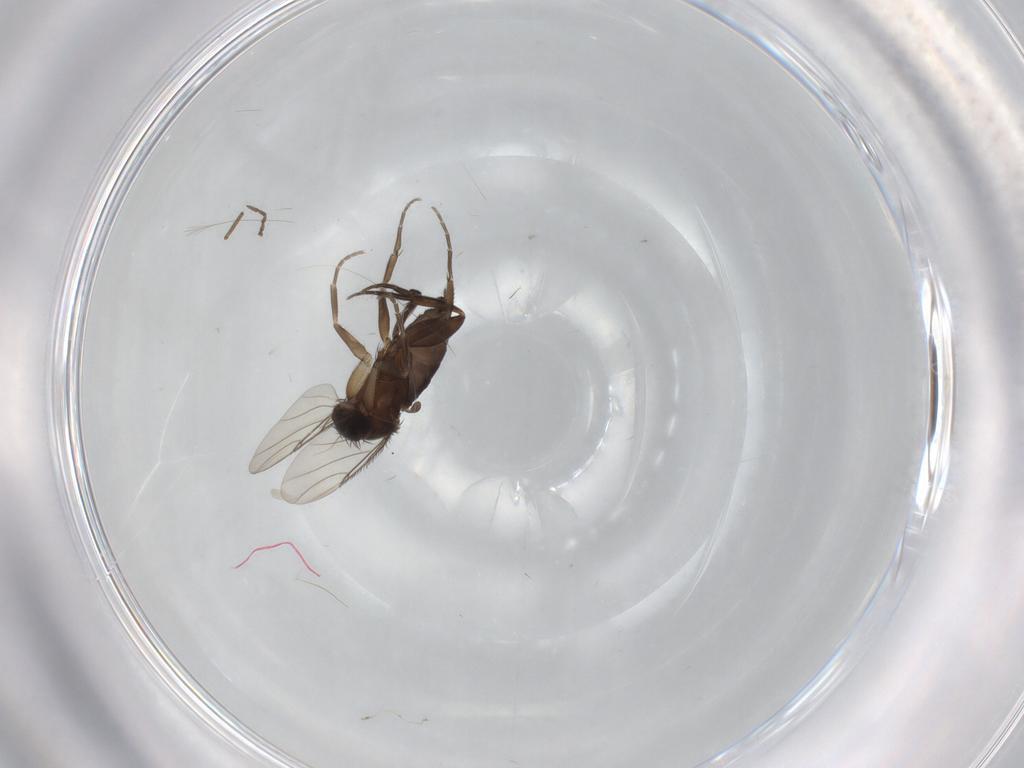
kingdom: Animalia
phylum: Arthropoda
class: Insecta
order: Diptera
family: Phoridae
